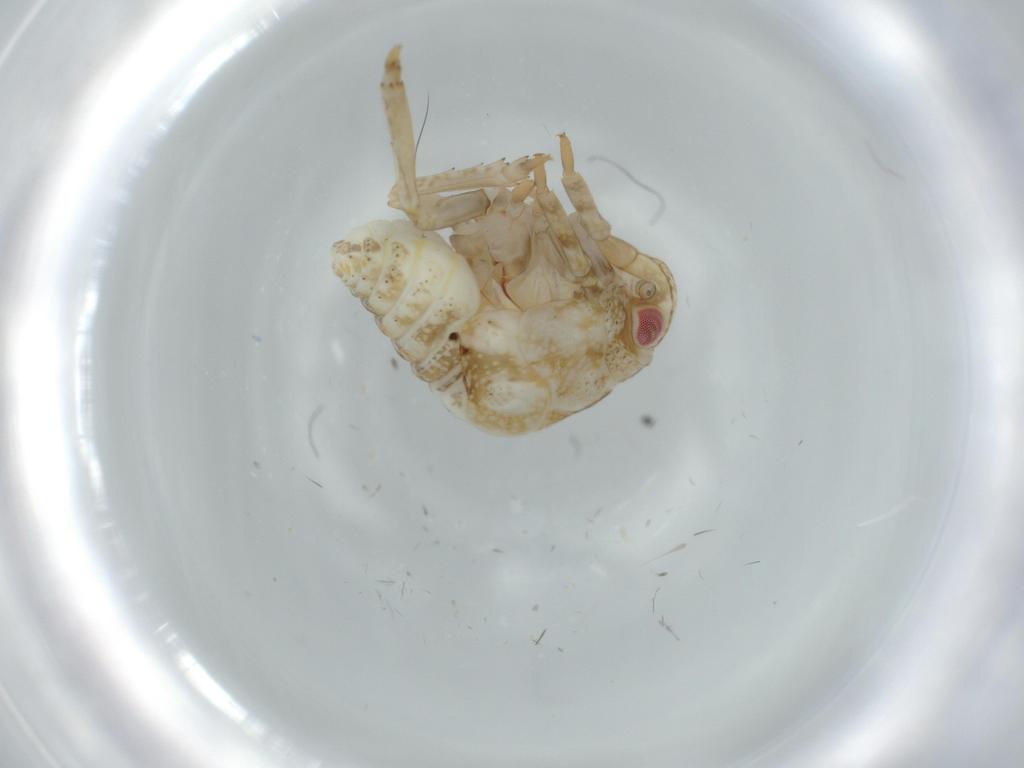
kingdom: Animalia
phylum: Arthropoda
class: Insecta
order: Hemiptera
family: Acanaloniidae
